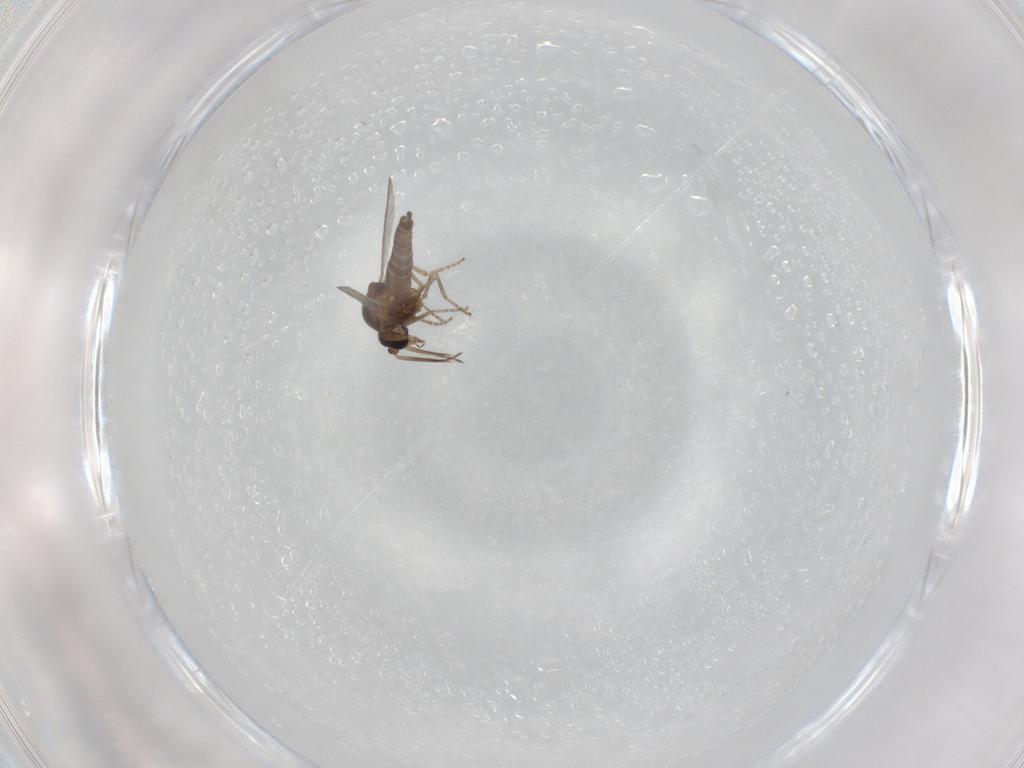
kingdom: Animalia
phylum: Arthropoda
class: Insecta
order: Diptera
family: Ceratopogonidae
